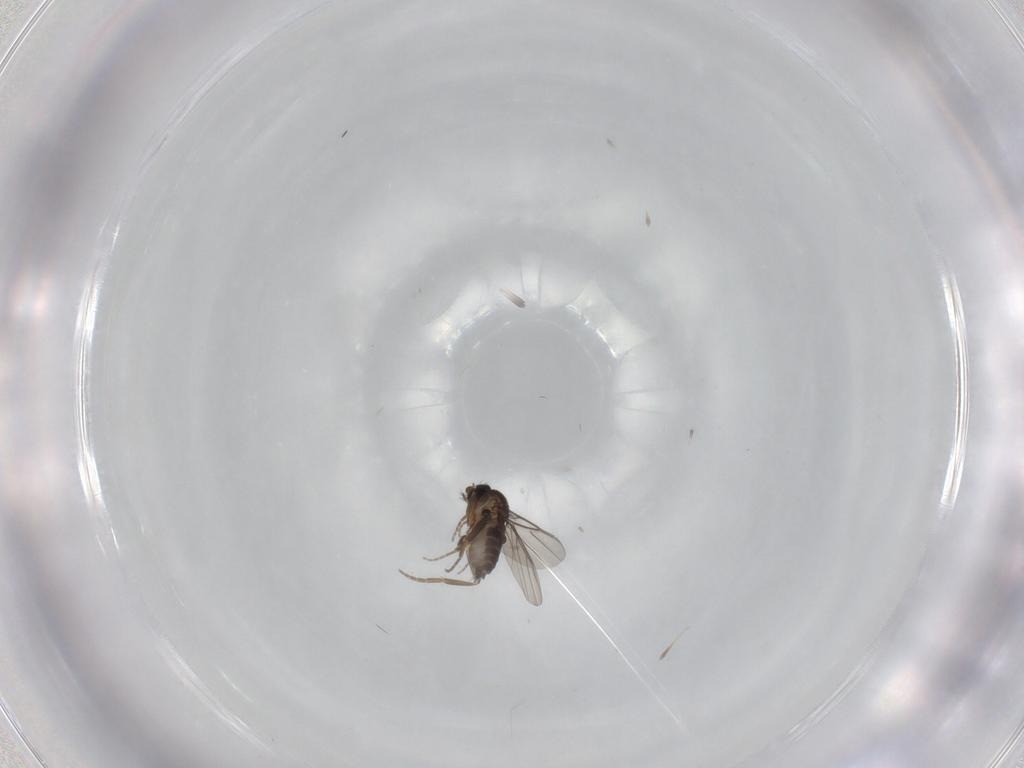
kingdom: Animalia
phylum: Arthropoda
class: Insecta
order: Diptera
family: Phoridae
